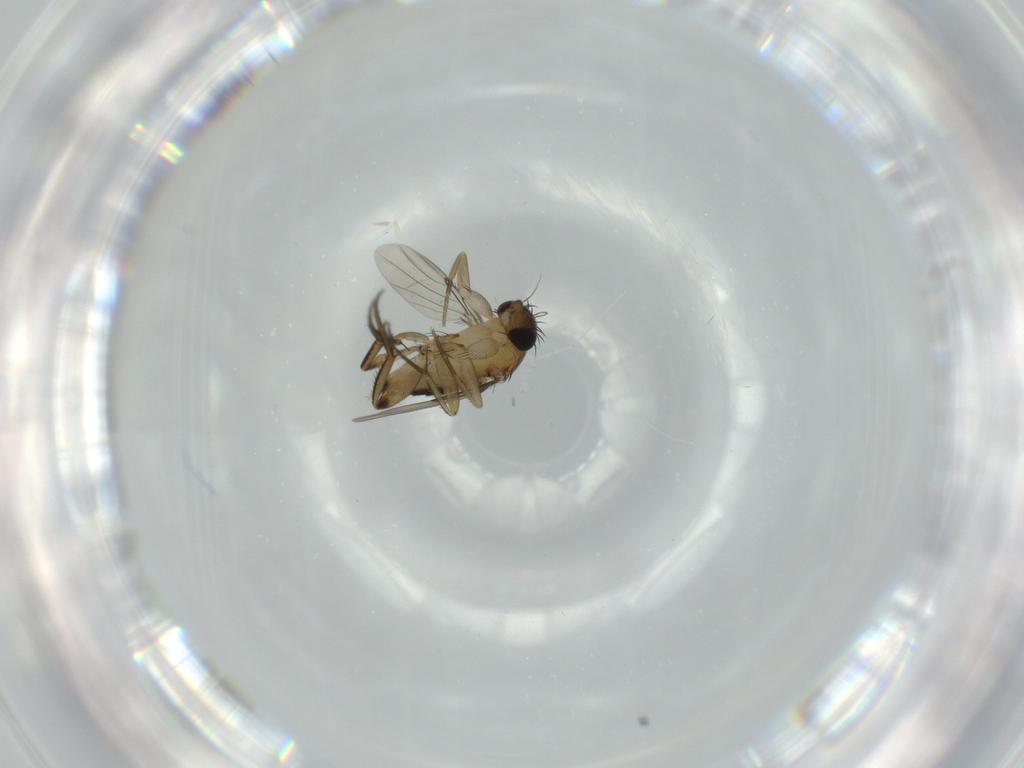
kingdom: Animalia
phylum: Arthropoda
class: Insecta
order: Diptera
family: Phoridae
